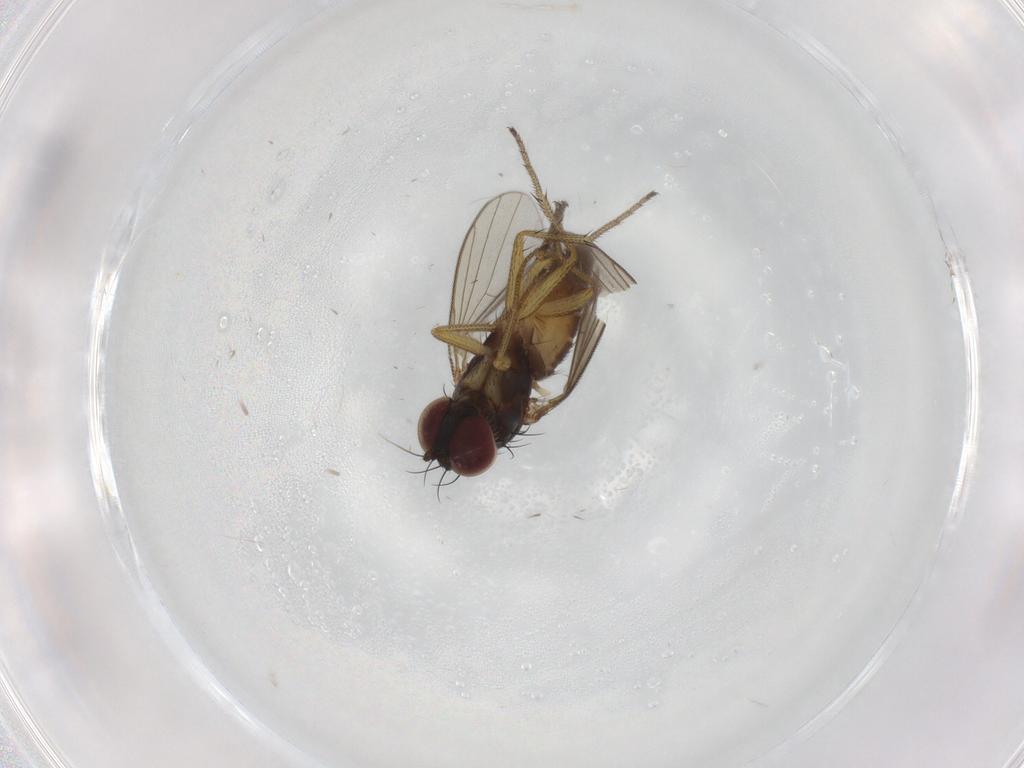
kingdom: Animalia
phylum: Arthropoda
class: Insecta
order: Diptera
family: Dolichopodidae
